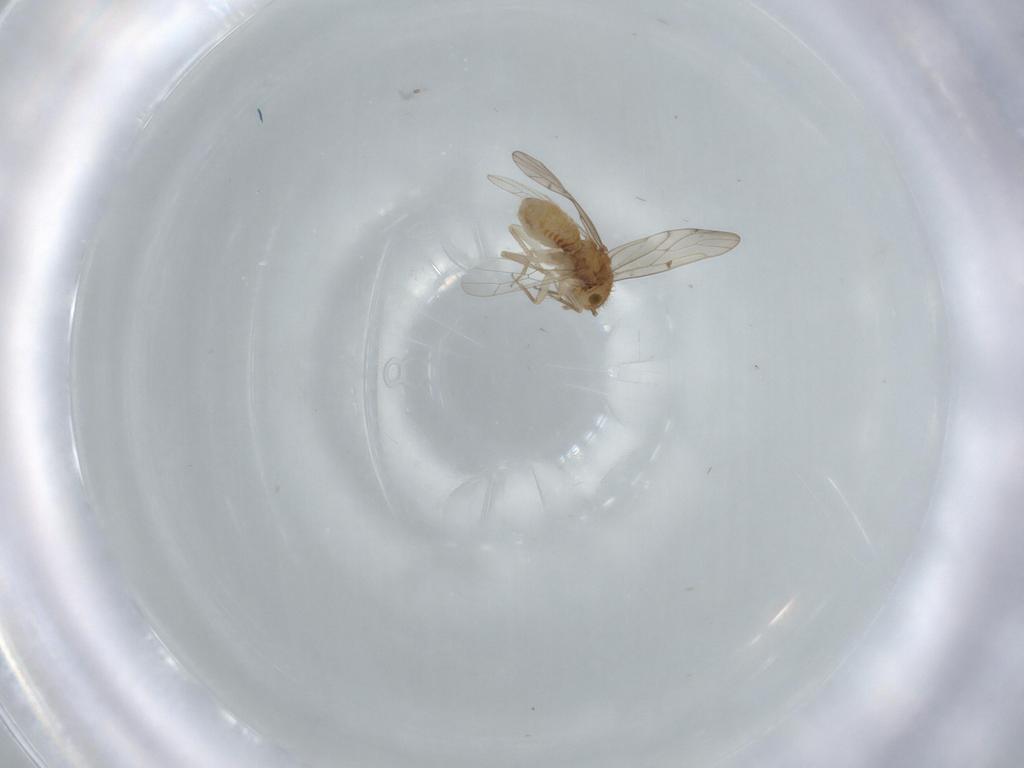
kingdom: Animalia
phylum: Arthropoda
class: Insecta
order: Psocodea
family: Ectopsocidae
